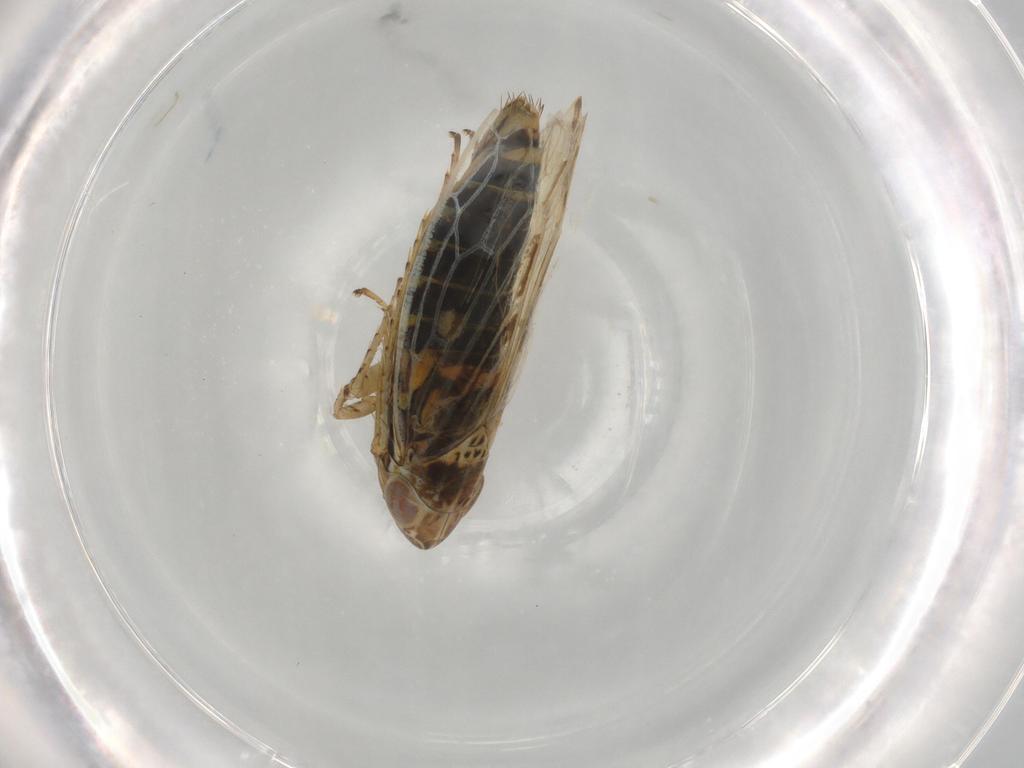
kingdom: Animalia
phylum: Arthropoda
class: Insecta
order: Hemiptera
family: Cicadellidae
